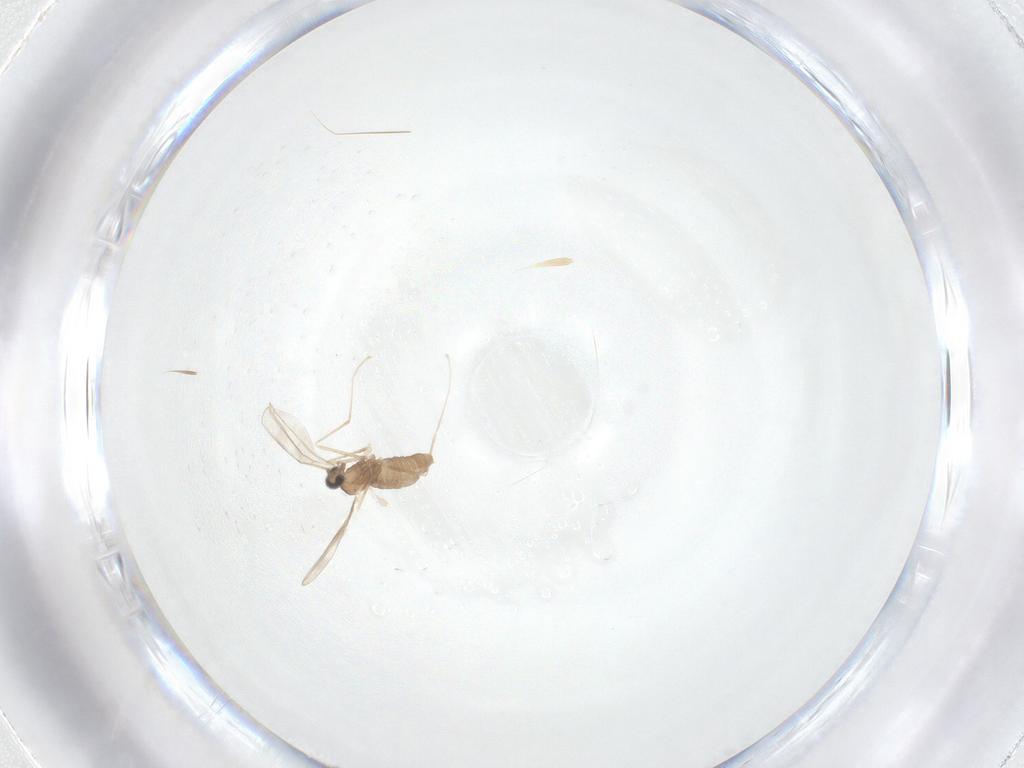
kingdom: Animalia
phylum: Arthropoda
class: Insecta
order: Diptera
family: Cecidomyiidae
